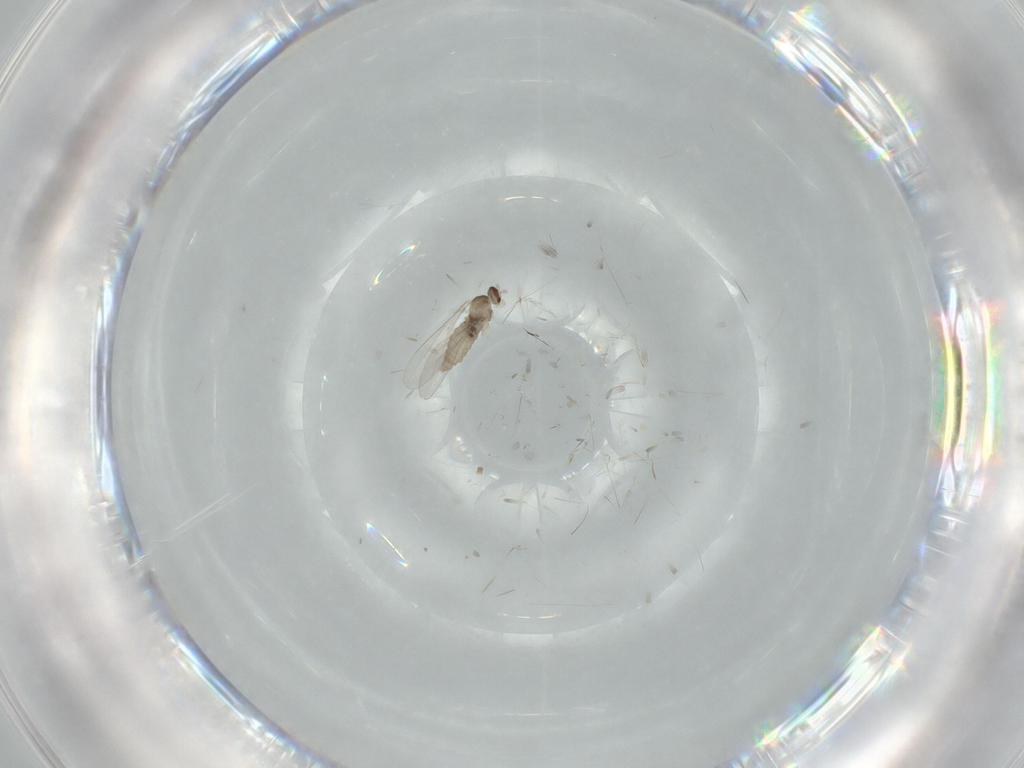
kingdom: Animalia
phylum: Arthropoda
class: Insecta
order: Diptera
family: Cecidomyiidae
